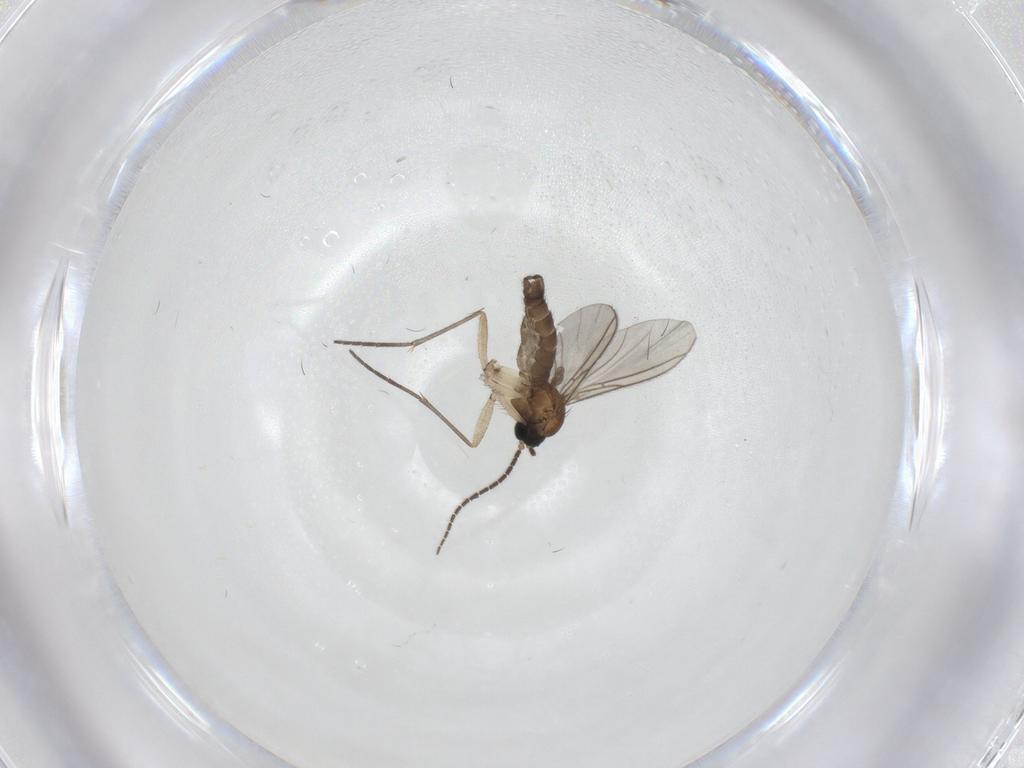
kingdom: Animalia
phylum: Arthropoda
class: Insecta
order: Diptera
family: Sciaridae
